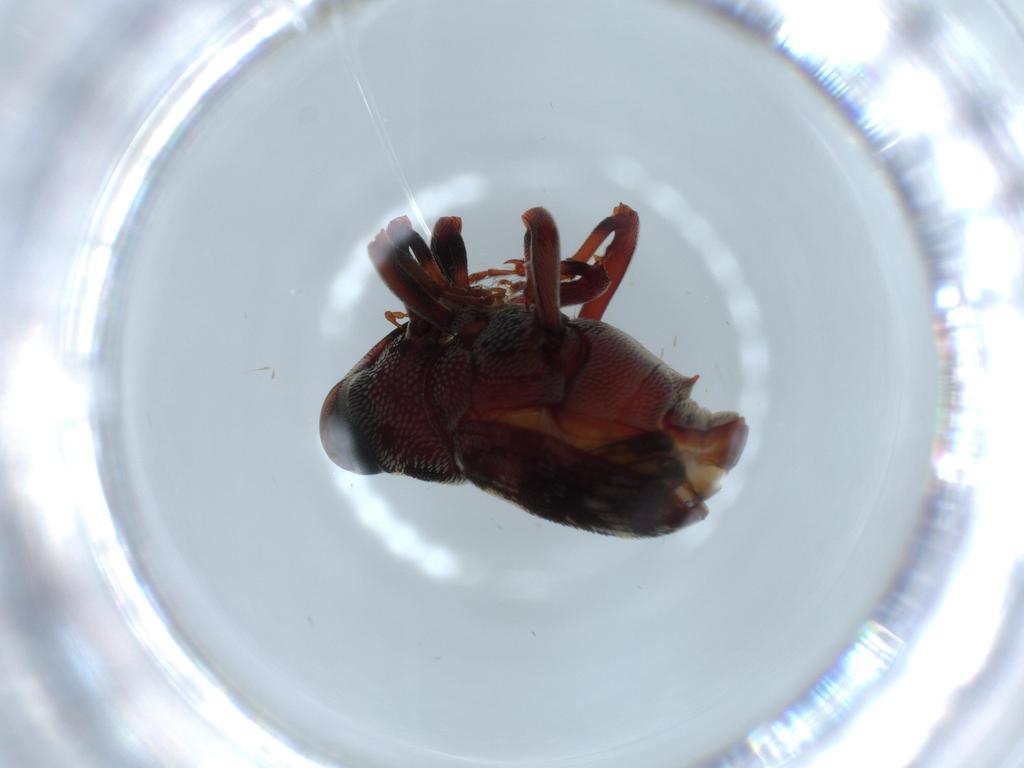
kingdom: Animalia
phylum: Arthropoda
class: Insecta
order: Coleoptera
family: Curculionidae
